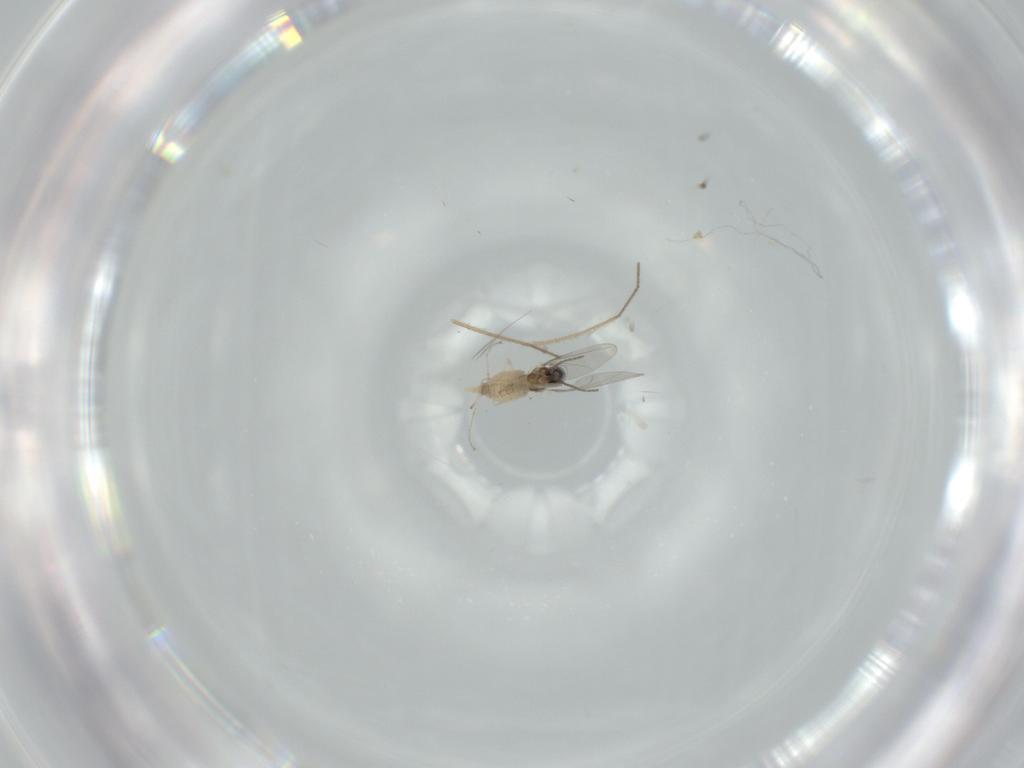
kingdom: Animalia
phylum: Arthropoda
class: Insecta
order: Diptera
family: Cecidomyiidae
